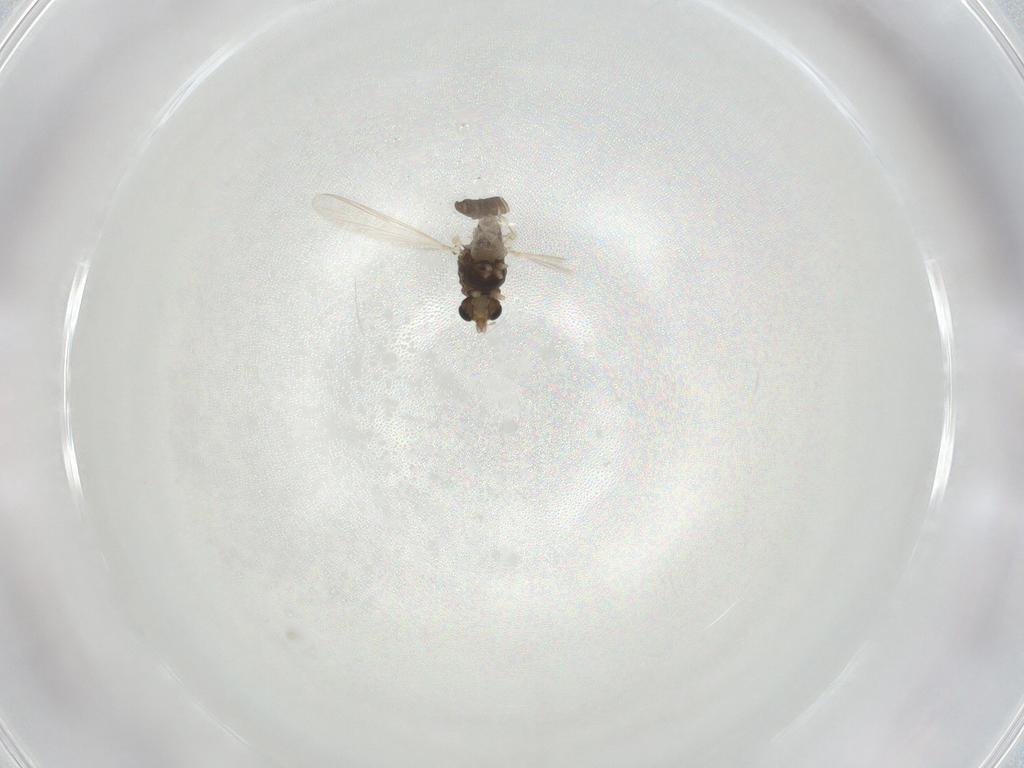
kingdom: Animalia
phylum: Arthropoda
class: Insecta
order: Diptera
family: Chironomidae
